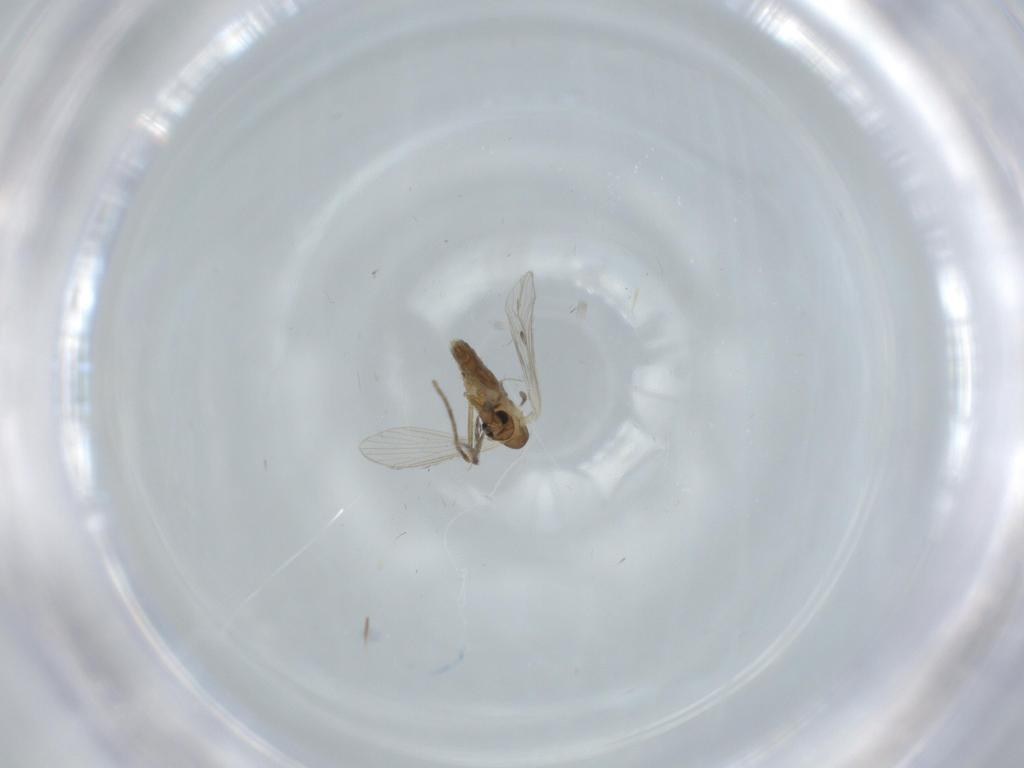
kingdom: Animalia
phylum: Arthropoda
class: Insecta
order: Diptera
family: Psychodidae
